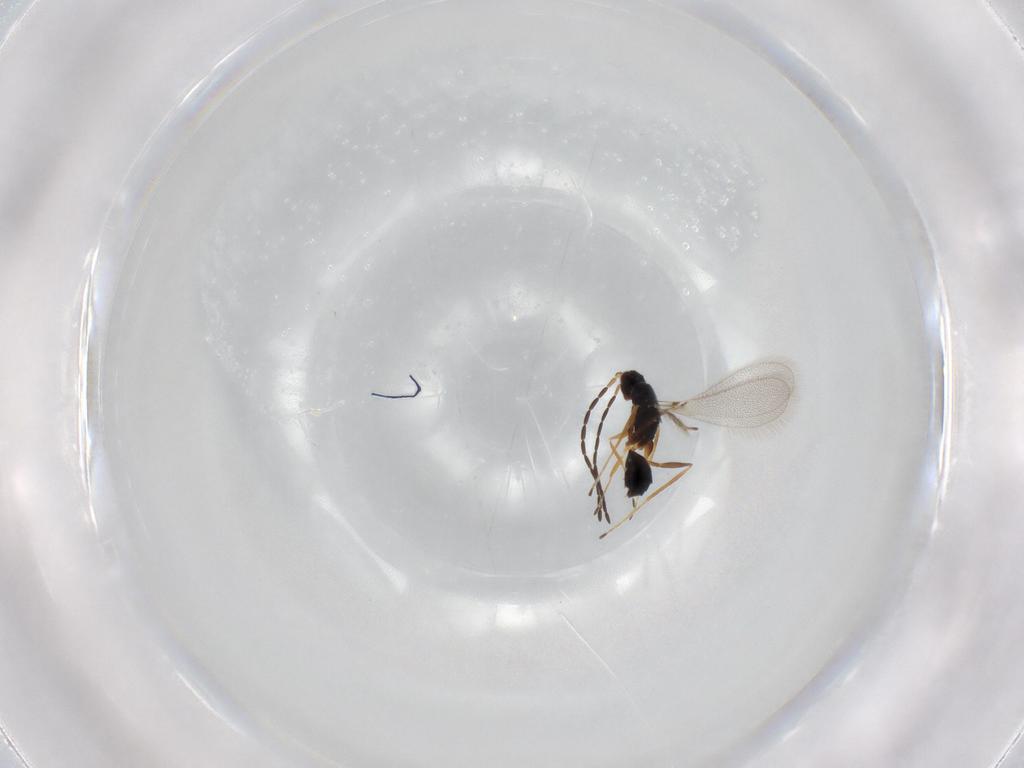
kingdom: Animalia
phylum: Arthropoda
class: Insecta
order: Hymenoptera
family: Mymaridae
